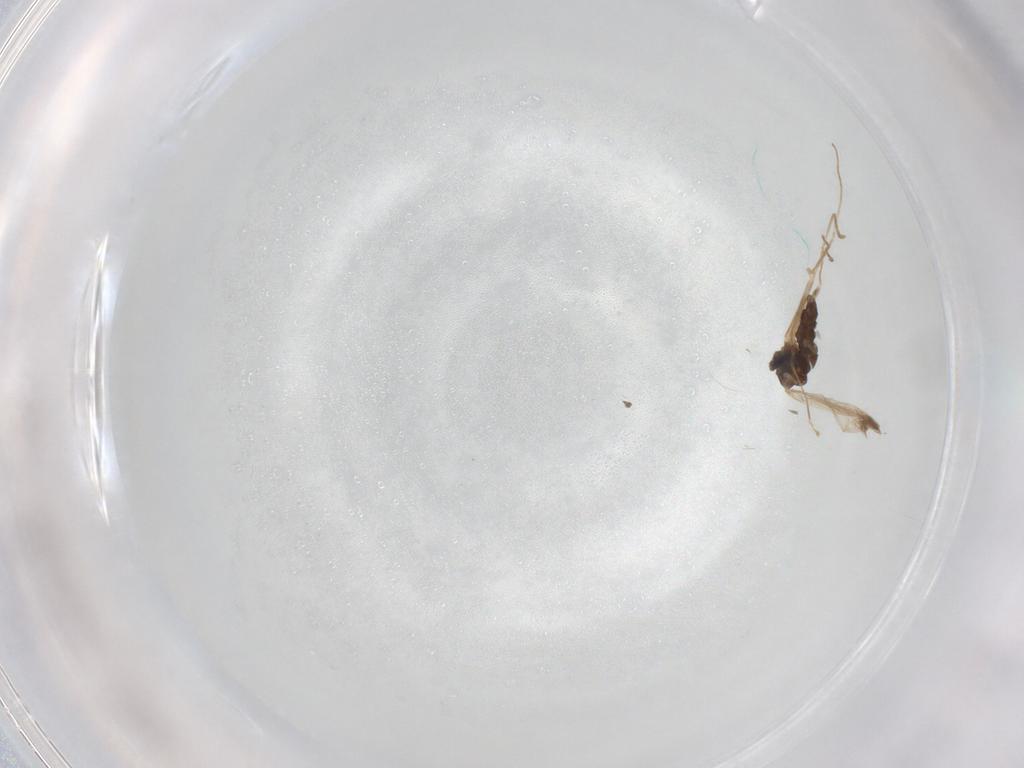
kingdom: Animalia
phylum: Arthropoda
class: Insecta
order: Diptera
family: Cecidomyiidae
